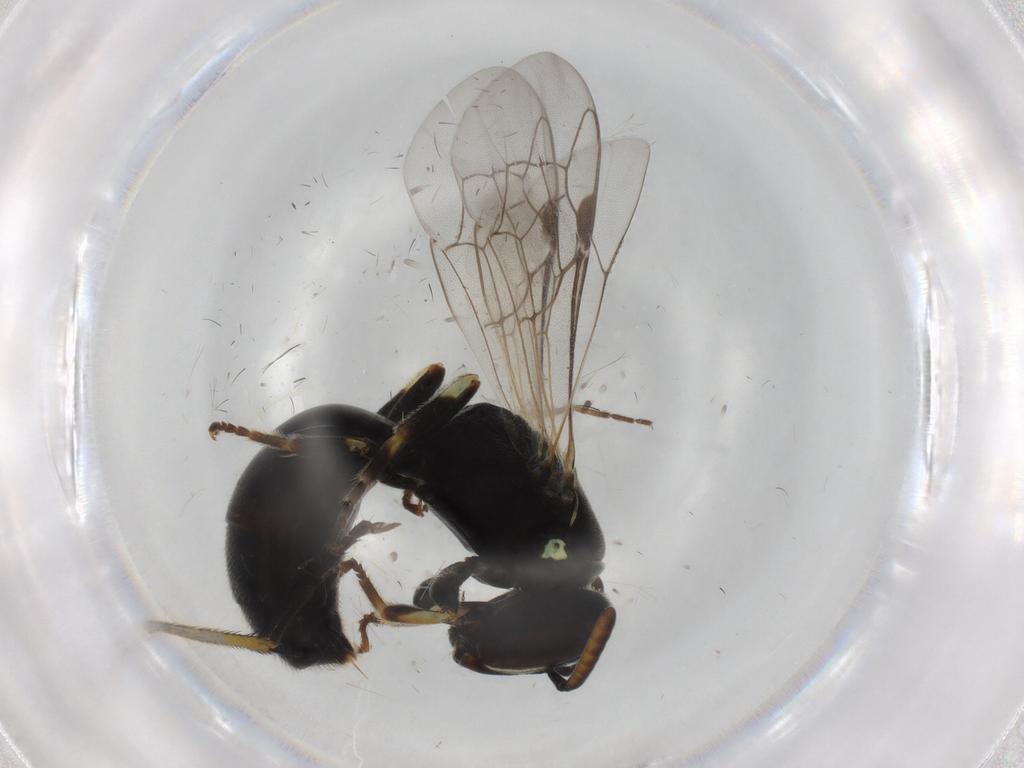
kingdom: Animalia
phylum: Arthropoda
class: Insecta
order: Hymenoptera
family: Colletidae
